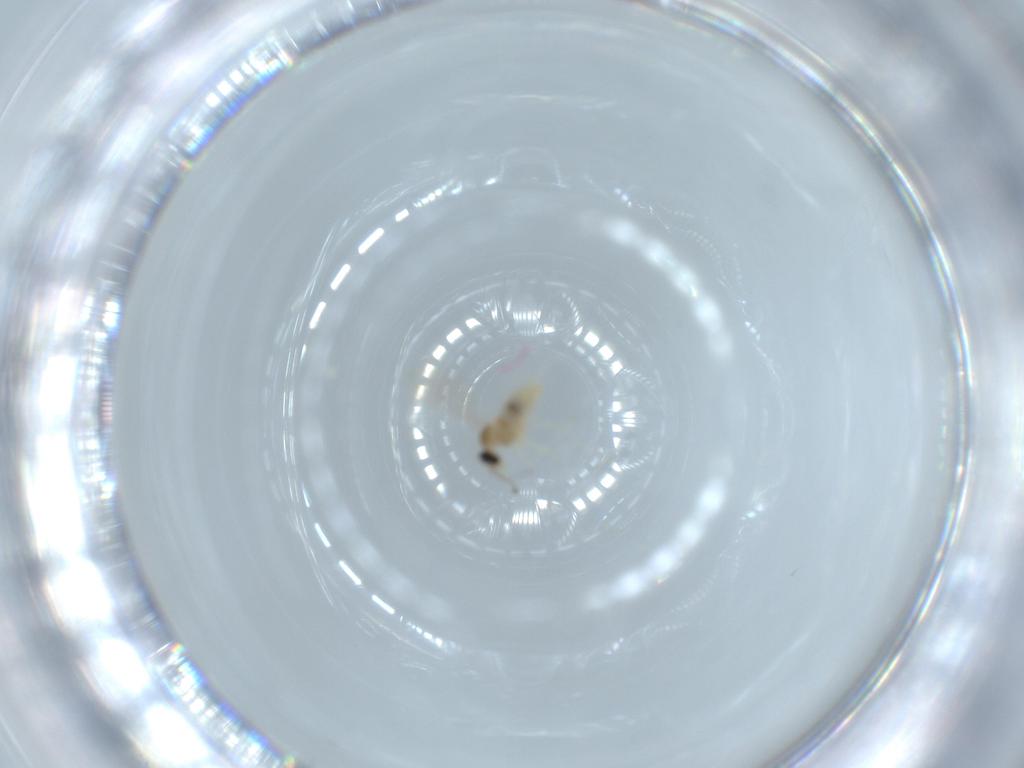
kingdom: Animalia
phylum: Arthropoda
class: Insecta
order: Diptera
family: Cecidomyiidae
